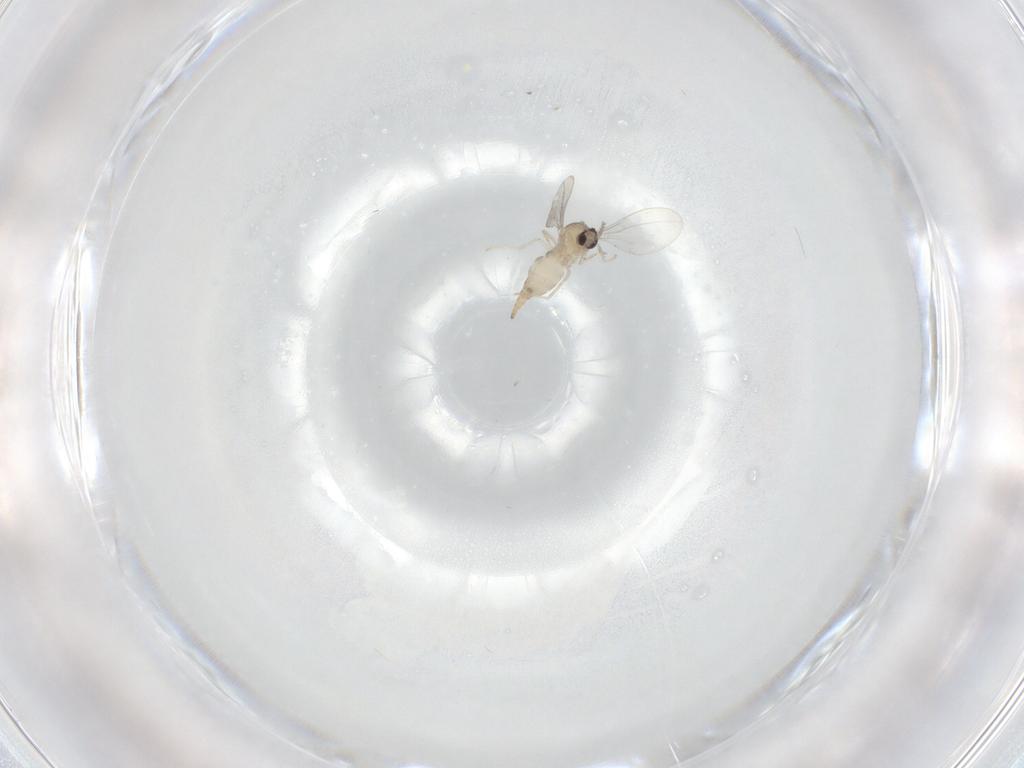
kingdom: Animalia
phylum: Arthropoda
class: Insecta
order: Diptera
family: Cecidomyiidae
